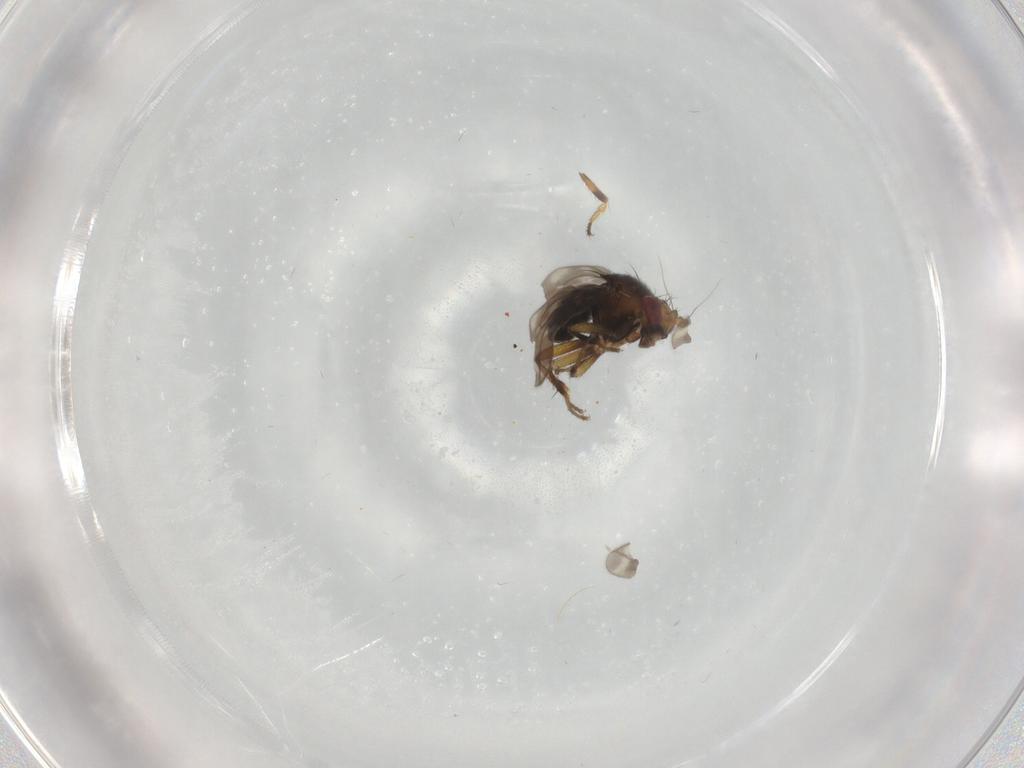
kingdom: Animalia
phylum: Arthropoda
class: Insecta
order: Diptera
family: Sphaeroceridae
